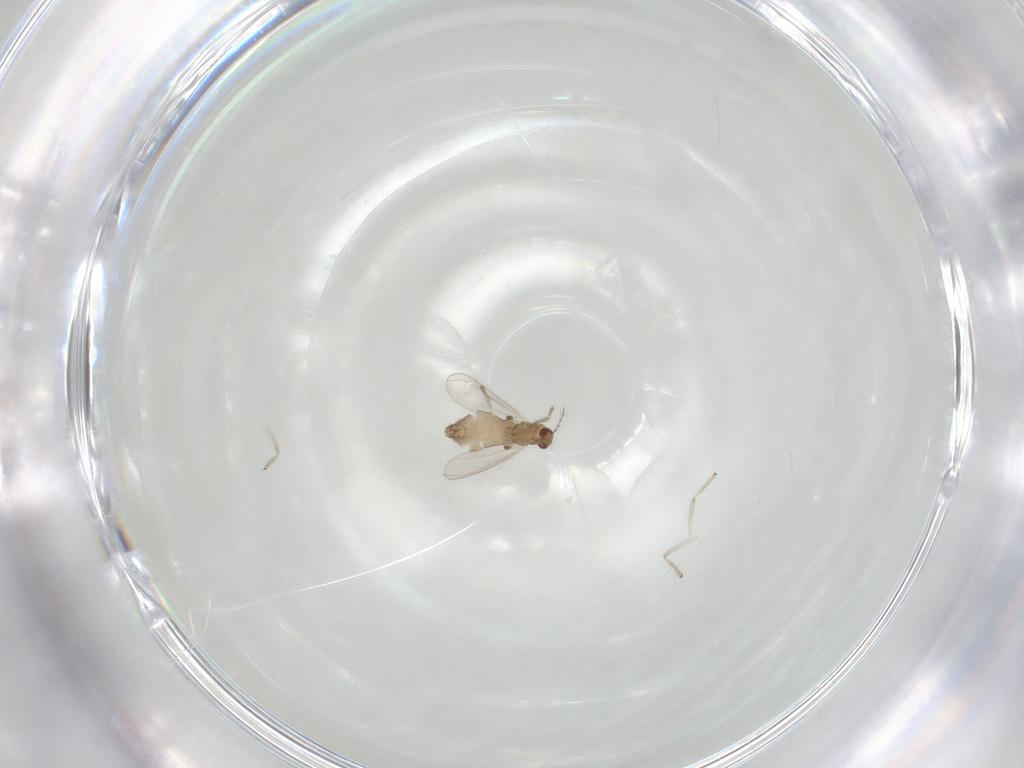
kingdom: Animalia
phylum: Arthropoda
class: Insecta
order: Diptera
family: Chironomidae
